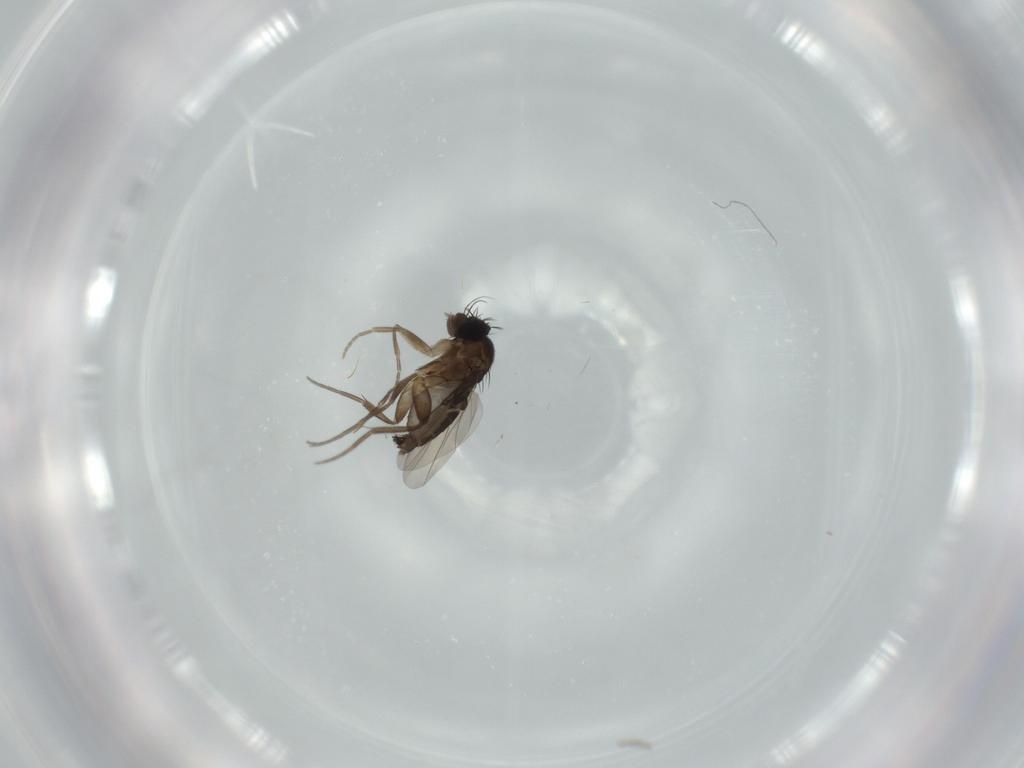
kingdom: Animalia
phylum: Arthropoda
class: Insecta
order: Diptera
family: Phoridae
